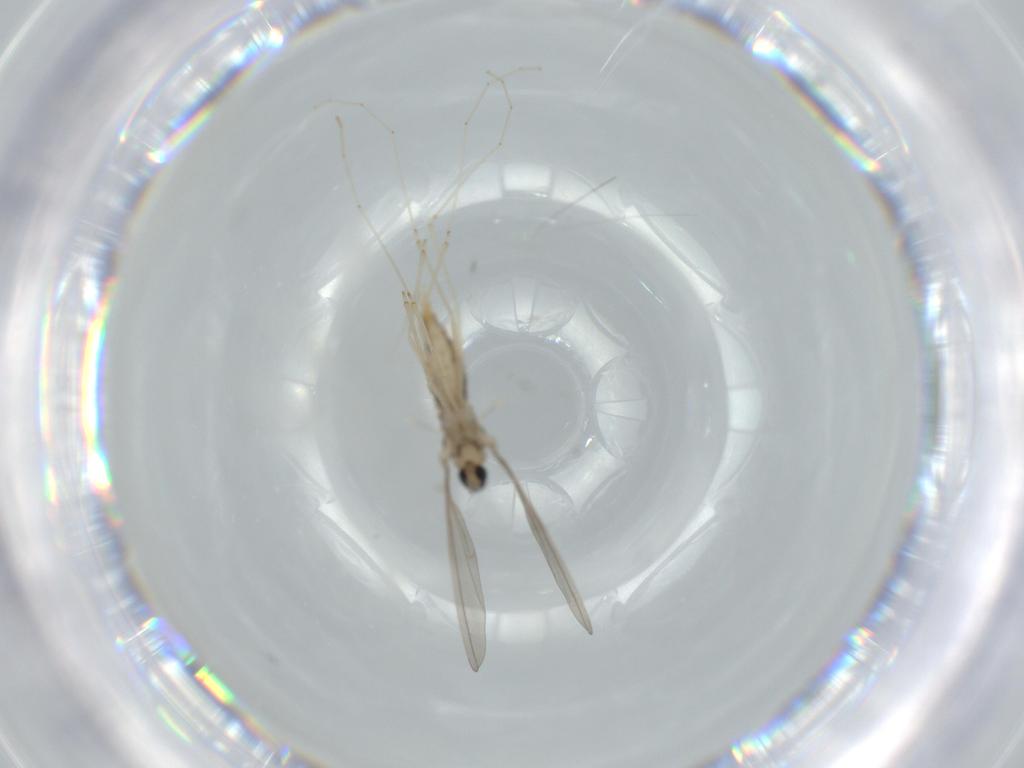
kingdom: Animalia
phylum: Arthropoda
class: Insecta
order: Diptera
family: Cecidomyiidae
